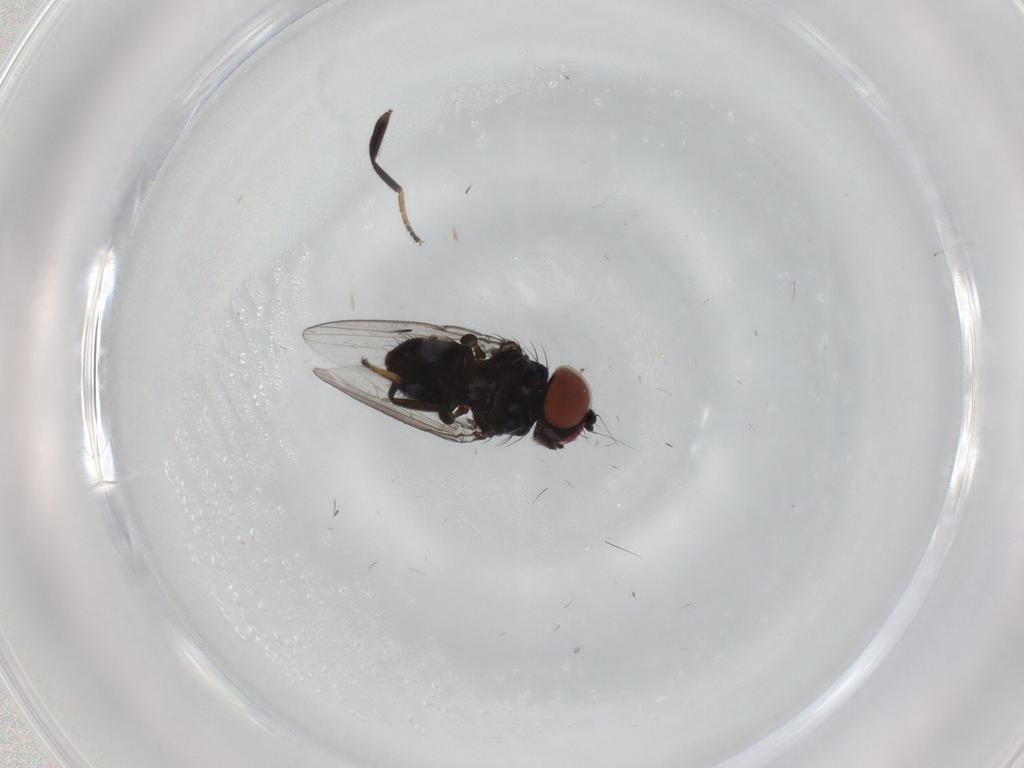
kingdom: Animalia
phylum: Arthropoda
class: Insecta
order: Diptera
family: Milichiidae
